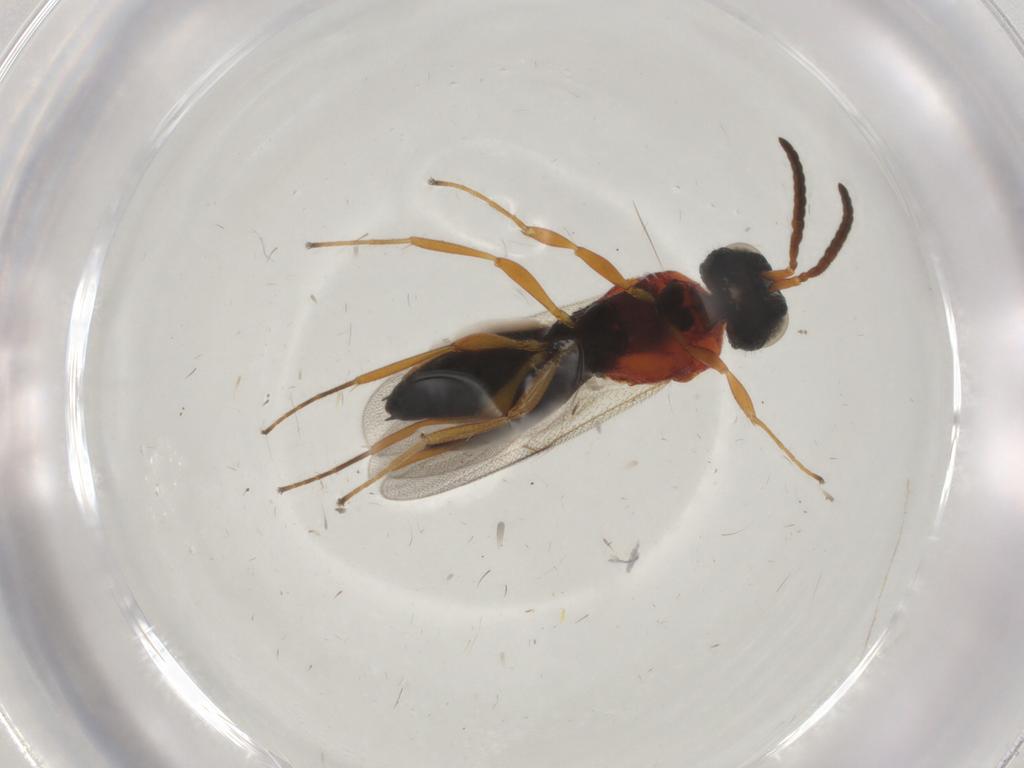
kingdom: Animalia
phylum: Arthropoda
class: Insecta
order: Hymenoptera
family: Scelionidae
